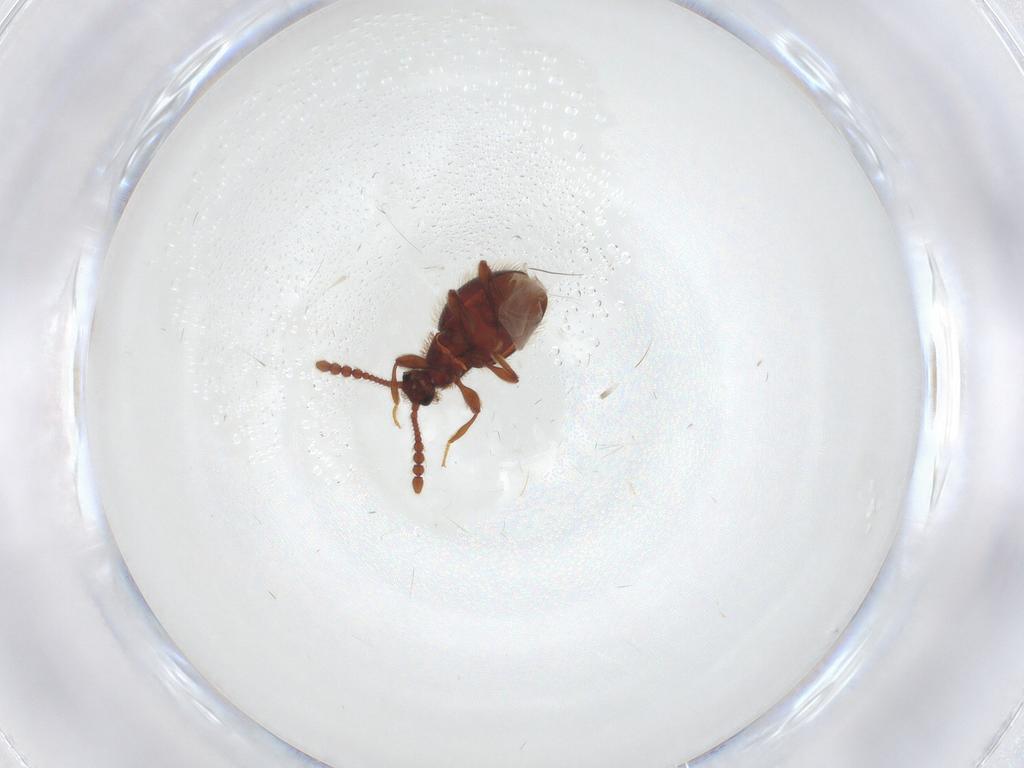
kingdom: Animalia
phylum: Arthropoda
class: Insecta
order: Coleoptera
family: Staphylinidae
